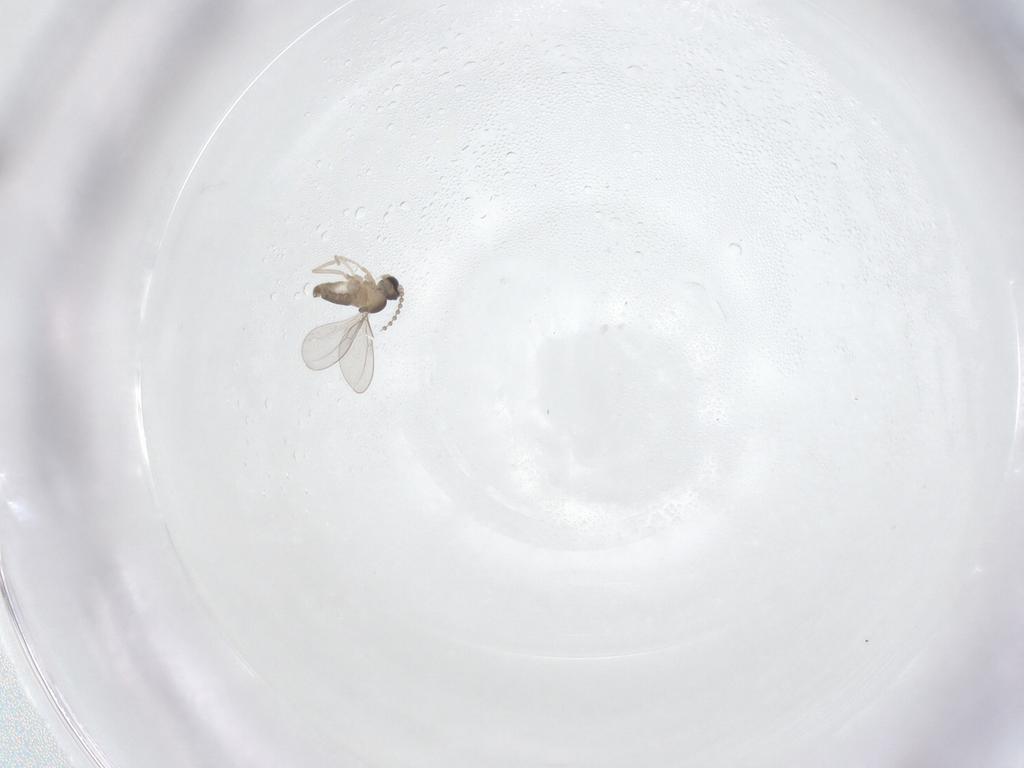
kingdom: Animalia
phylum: Arthropoda
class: Insecta
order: Diptera
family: Cecidomyiidae
